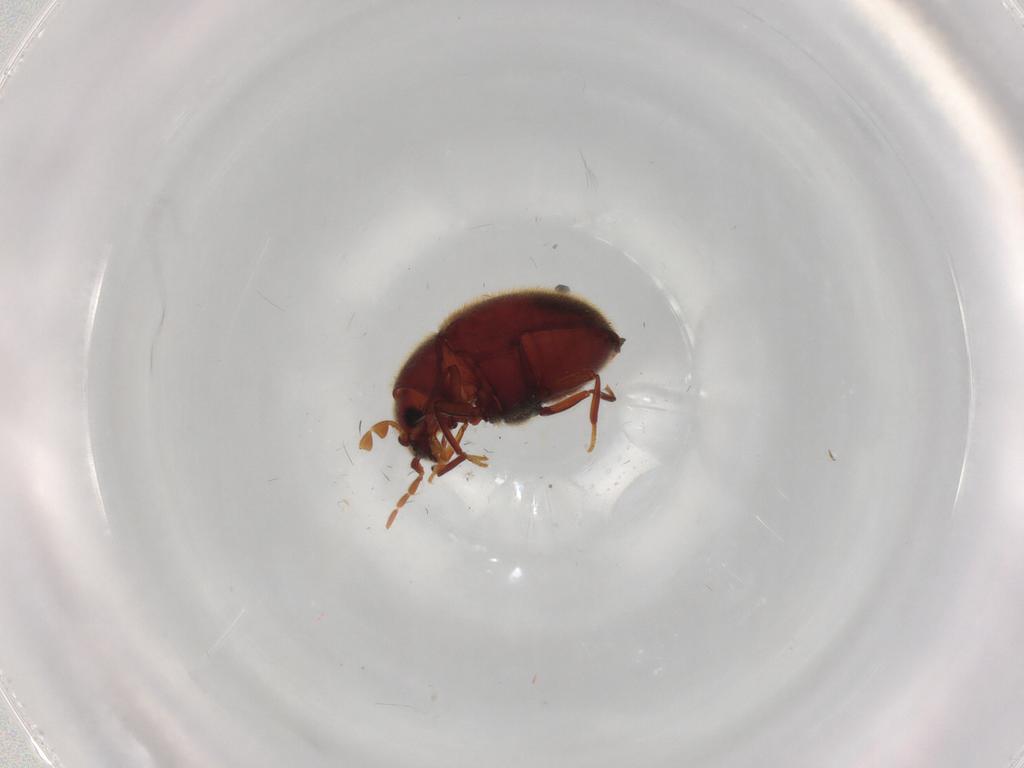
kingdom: Animalia
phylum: Arthropoda
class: Insecta
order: Coleoptera
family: Ptinidae
